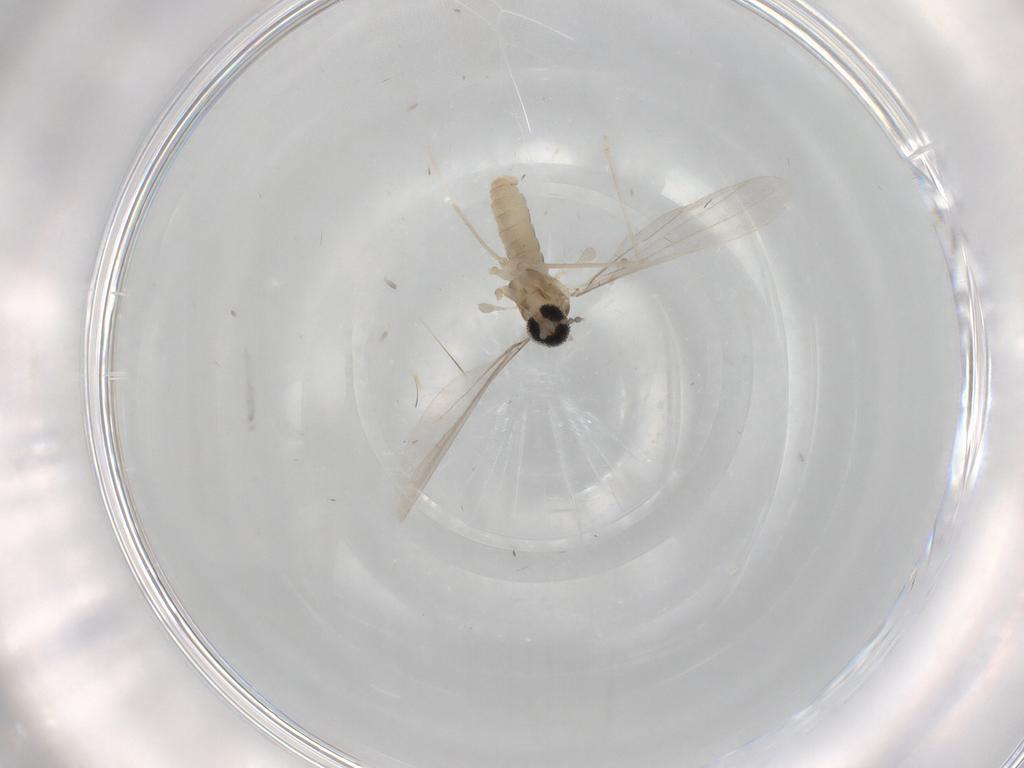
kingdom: Animalia
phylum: Arthropoda
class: Insecta
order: Diptera
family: Cecidomyiidae
